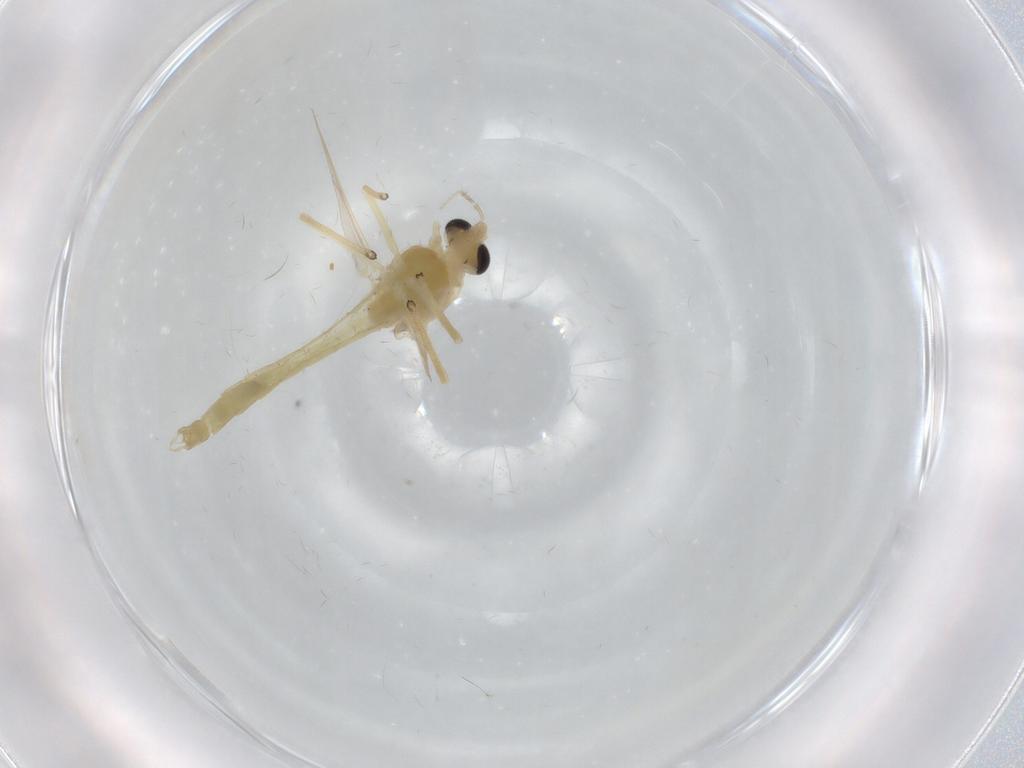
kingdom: Animalia
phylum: Arthropoda
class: Insecta
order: Diptera
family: Chironomidae
